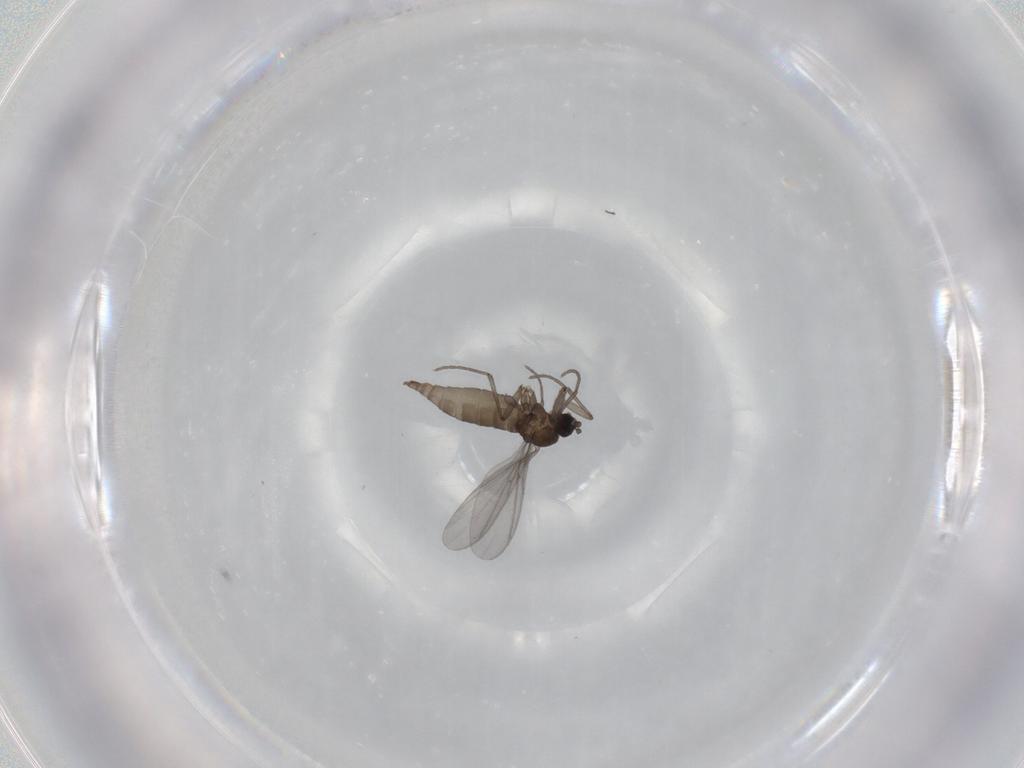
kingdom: Animalia
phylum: Arthropoda
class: Insecta
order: Diptera
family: Sciaridae
